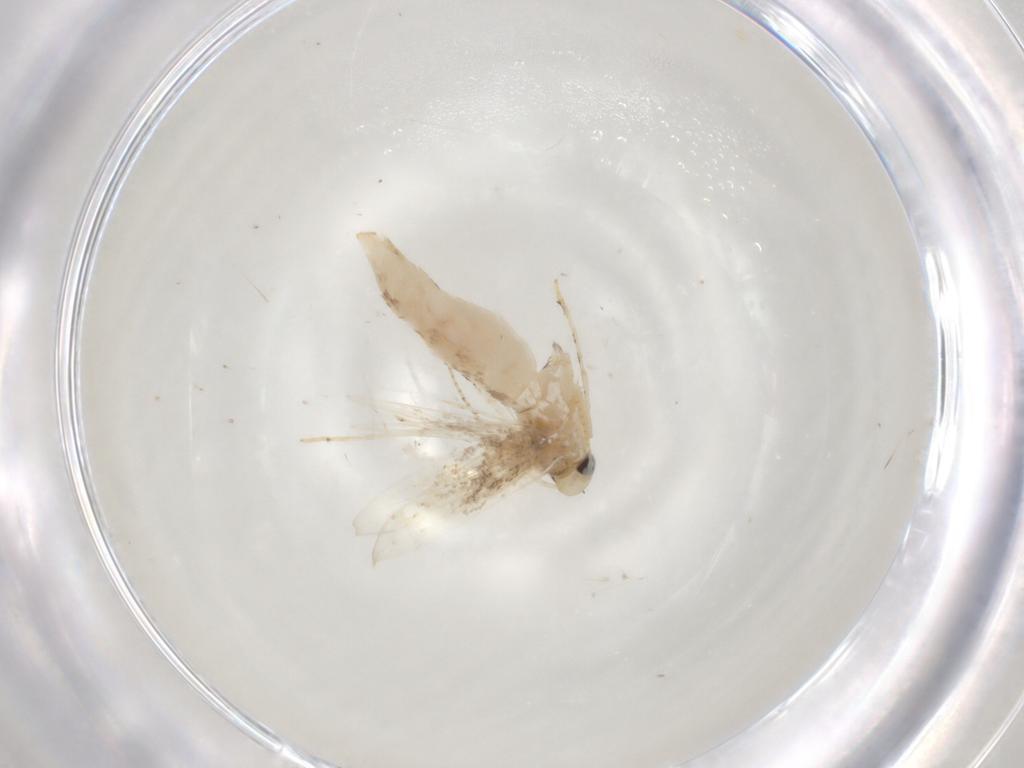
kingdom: Animalia
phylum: Arthropoda
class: Insecta
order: Lepidoptera
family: Gracillariidae
